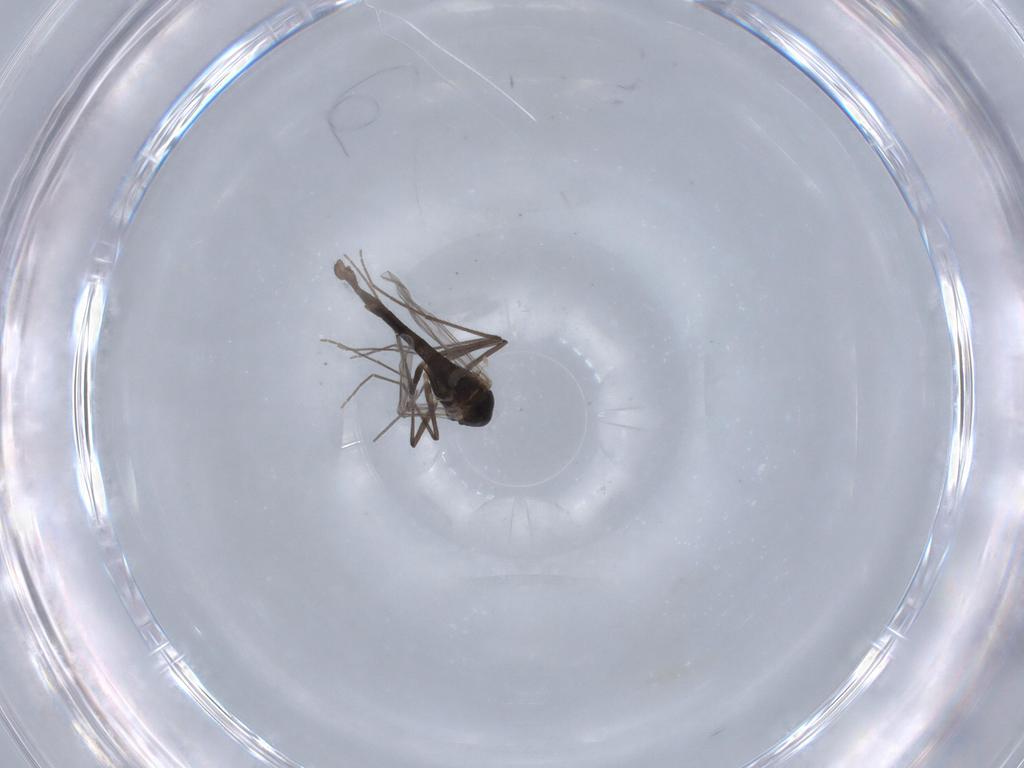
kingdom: Animalia
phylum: Arthropoda
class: Insecta
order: Diptera
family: Chironomidae
